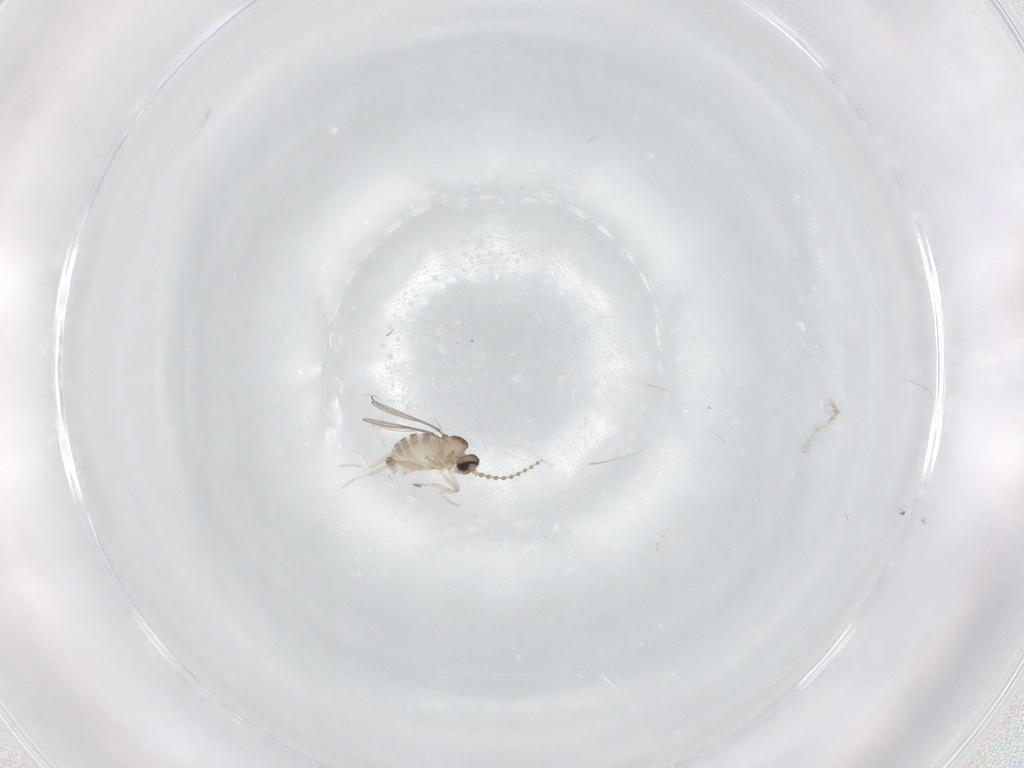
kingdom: Animalia
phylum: Arthropoda
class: Insecta
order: Diptera
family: Cecidomyiidae
